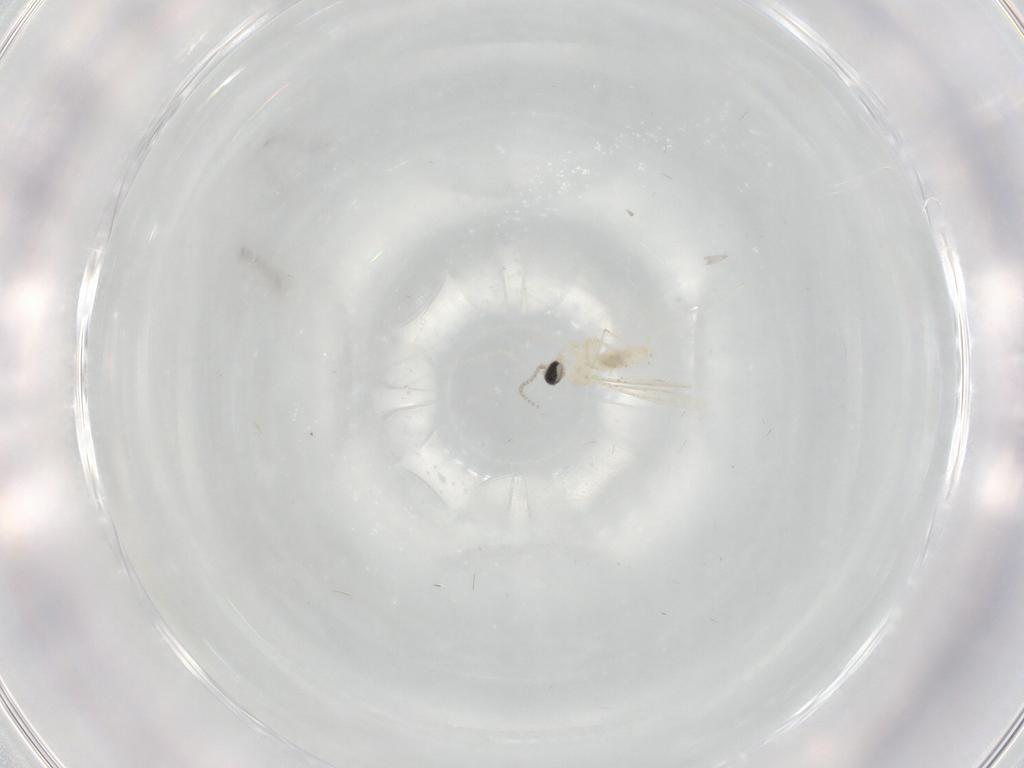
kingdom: Animalia
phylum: Arthropoda
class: Insecta
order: Diptera
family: Cecidomyiidae
